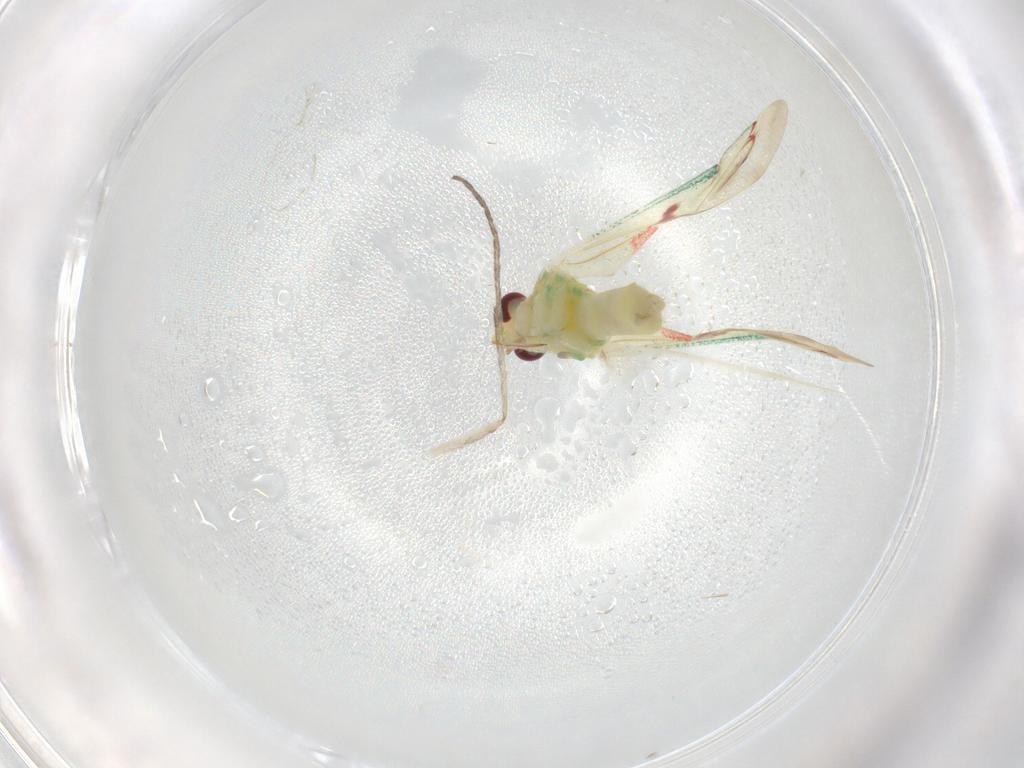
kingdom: Animalia
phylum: Arthropoda
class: Insecta
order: Hemiptera
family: Miridae
